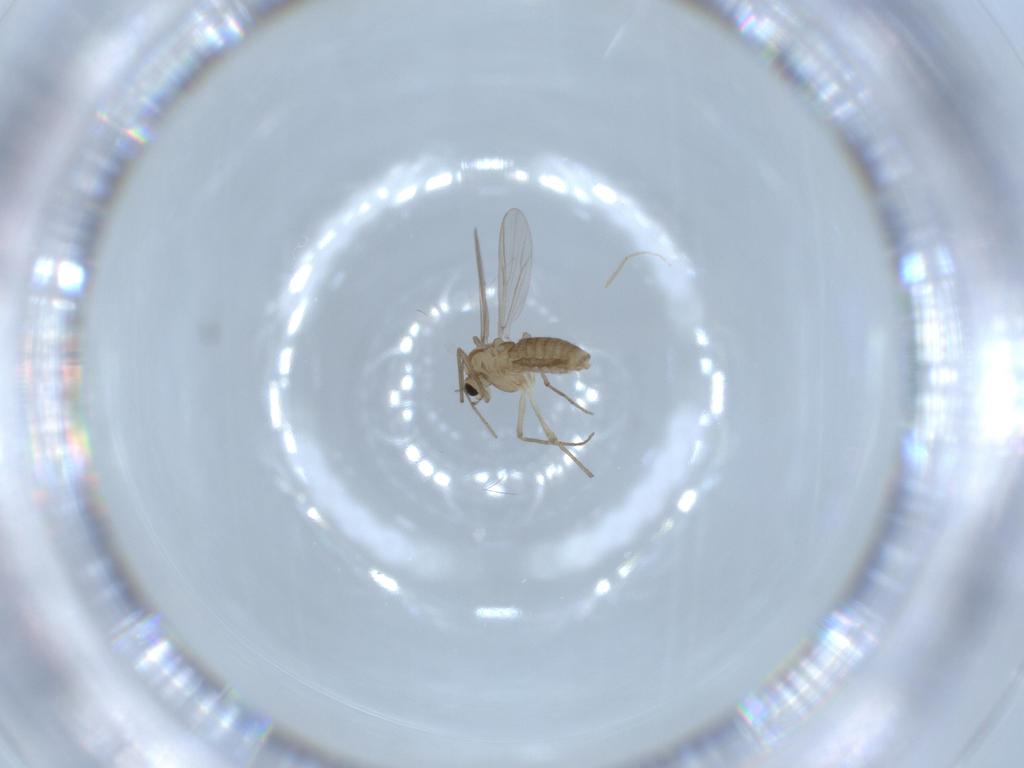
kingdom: Animalia
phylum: Arthropoda
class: Insecta
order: Diptera
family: Chironomidae
